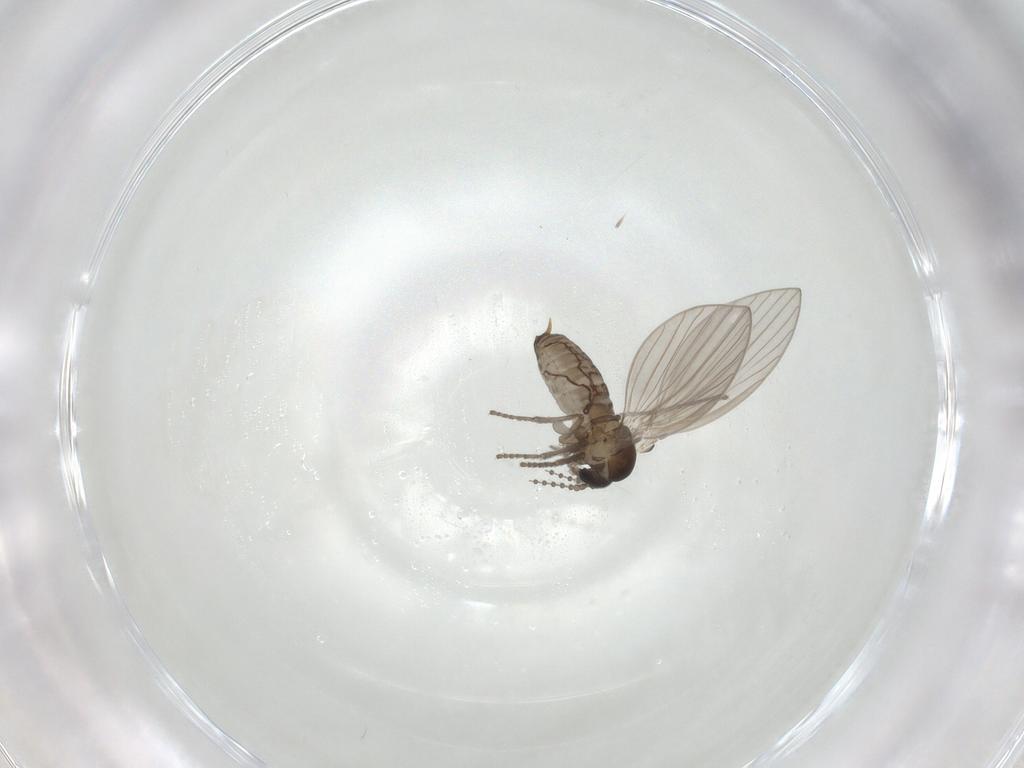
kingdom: Animalia
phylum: Arthropoda
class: Insecta
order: Diptera
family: Psychodidae
